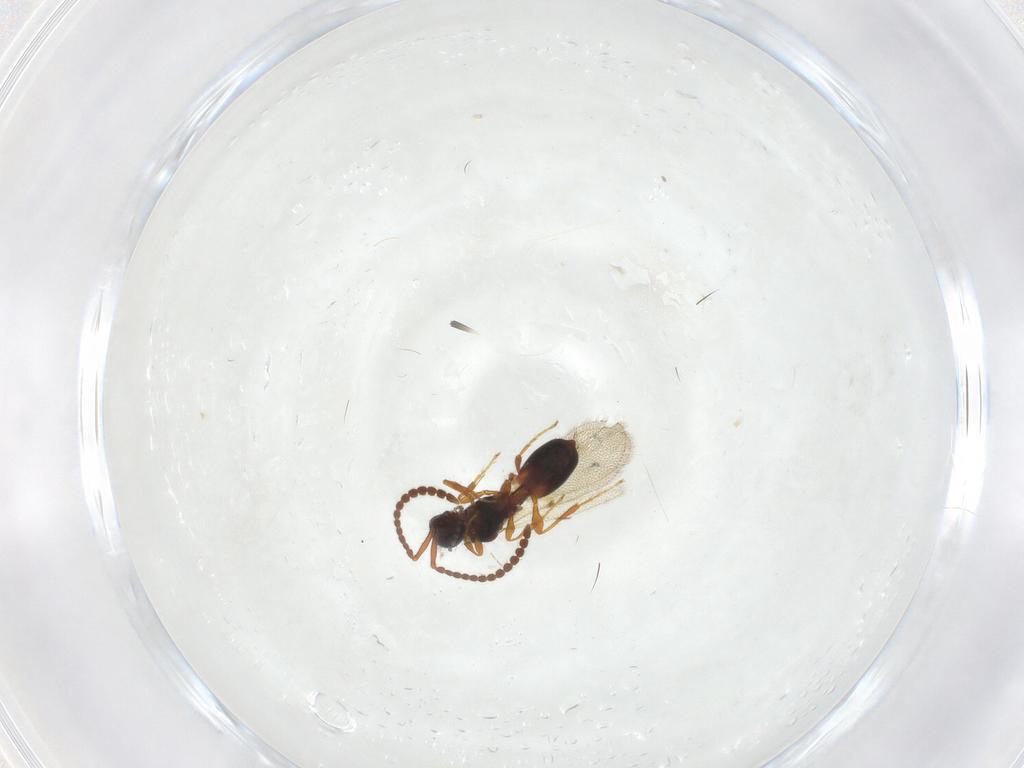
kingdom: Animalia
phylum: Arthropoda
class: Insecta
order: Hymenoptera
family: Diapriidae
